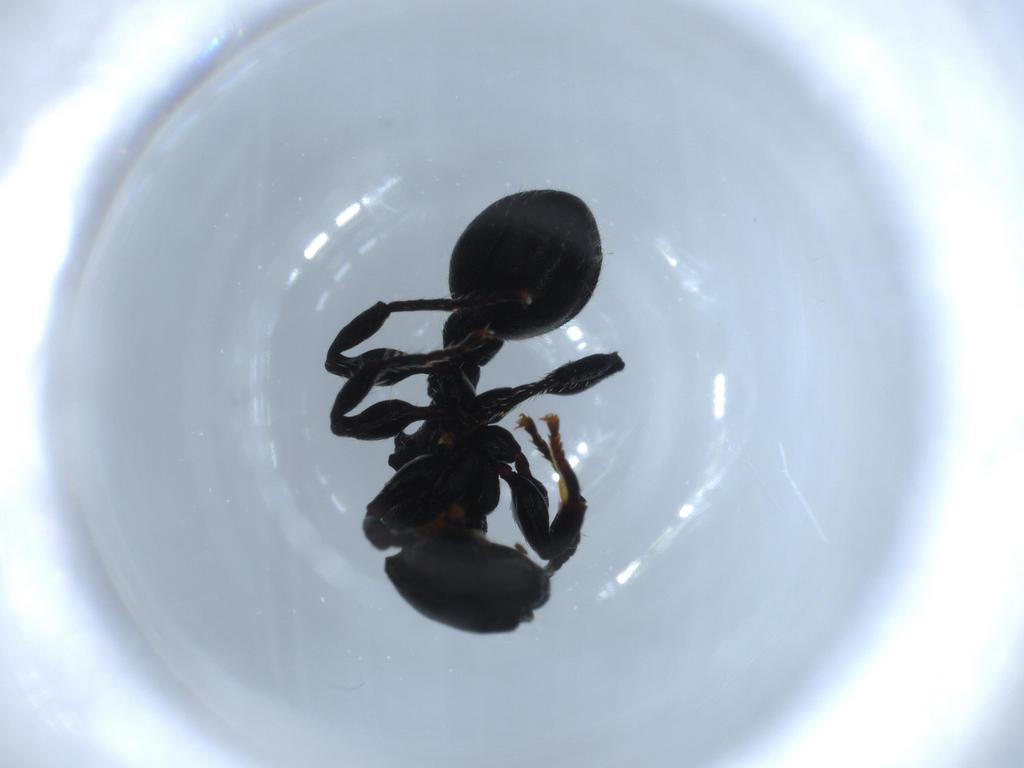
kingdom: Animalia
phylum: Arthropoda
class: Insecta
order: Hymenoptera
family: Formicidae
